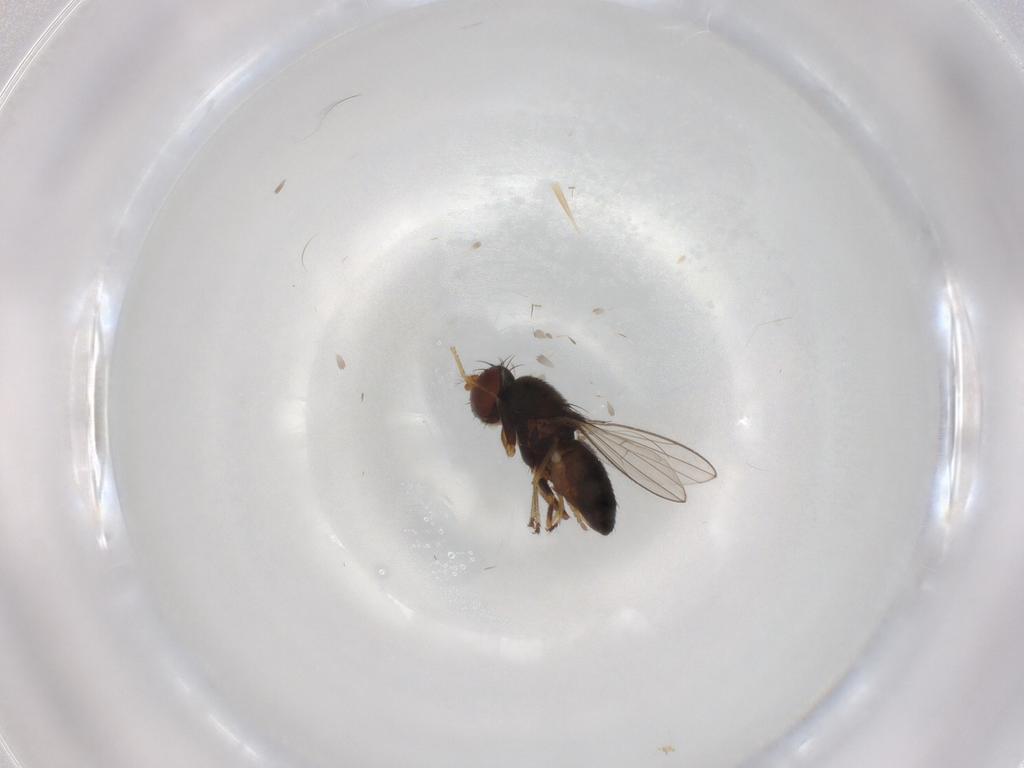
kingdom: Animalia
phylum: Arthropoda
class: Insecta
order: Diptera
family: Ephydridae
